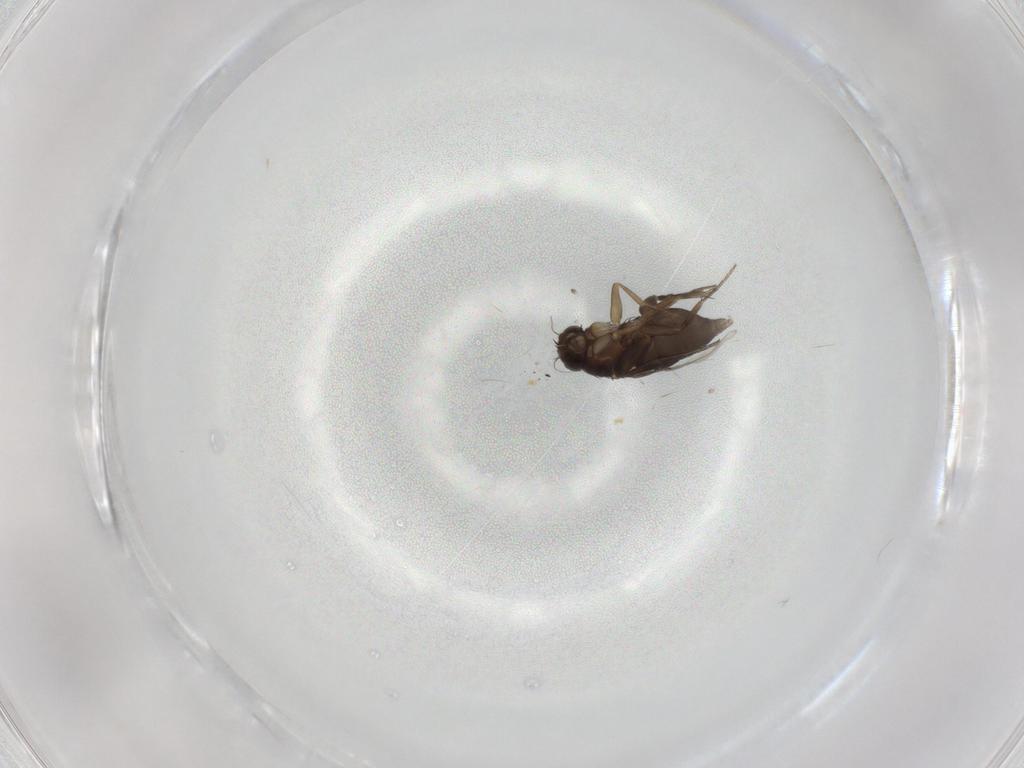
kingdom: Animalia
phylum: Arthropoda
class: Insecta
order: Diptera
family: Phoridae
